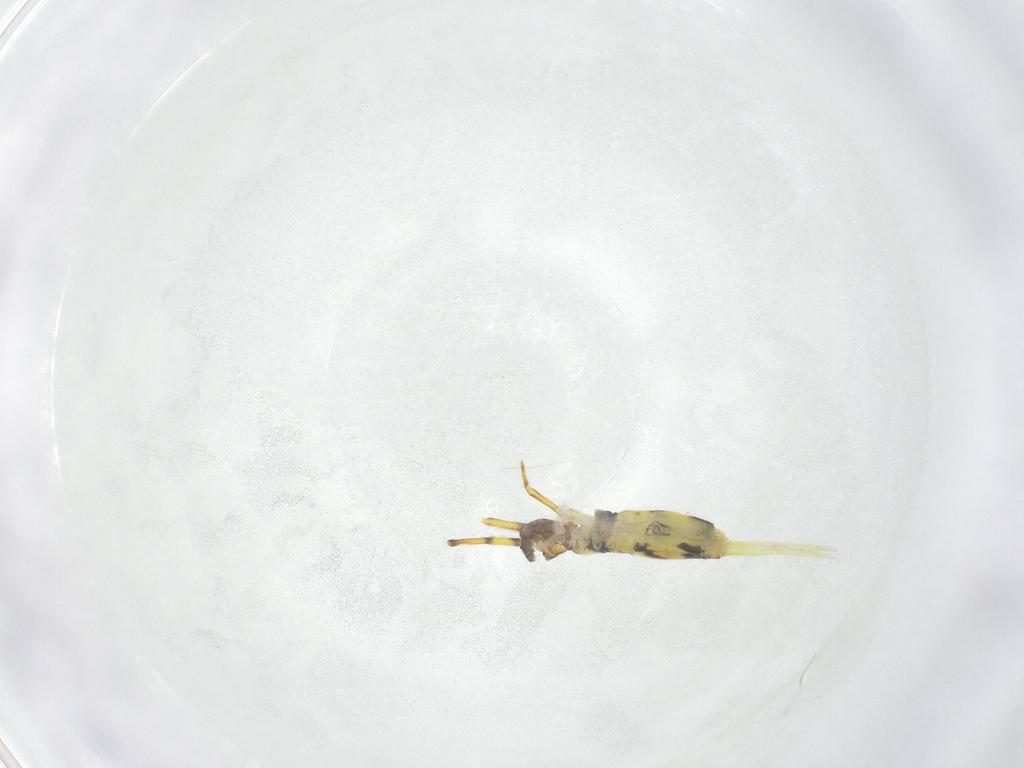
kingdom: Animalia
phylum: Arthropoda
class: Collembola
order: Entomobryomorpha
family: Entomobryidae
